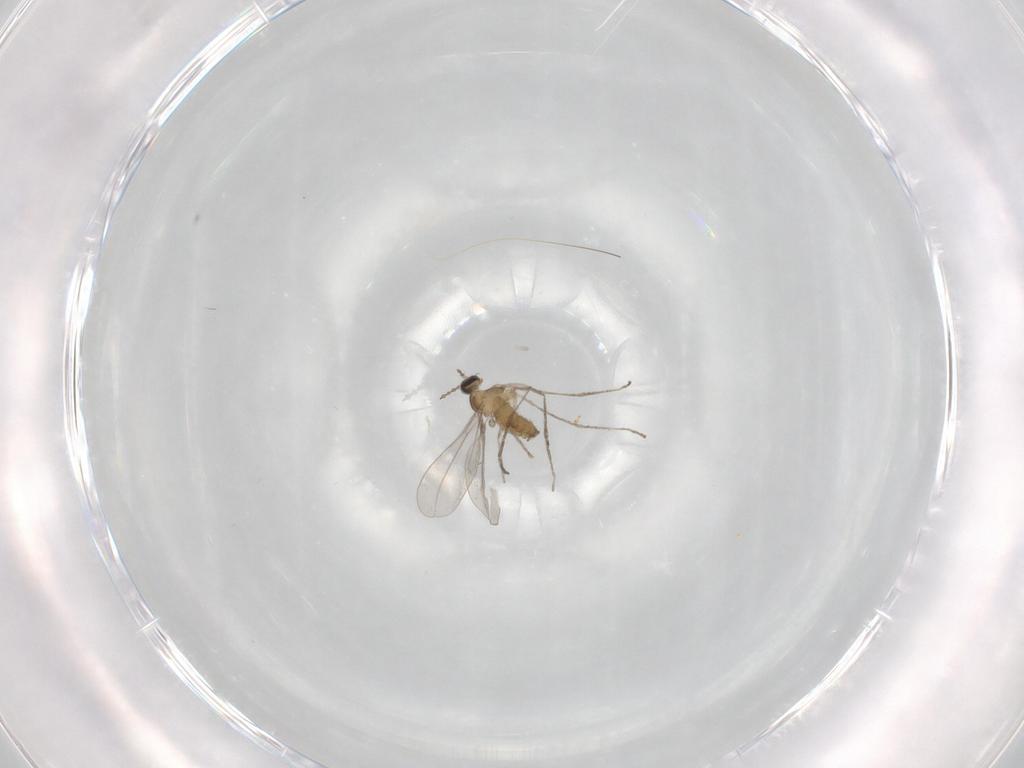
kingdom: Animalia
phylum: Arthropoda
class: Insecta
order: Diptera
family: Cecidomyiidae
